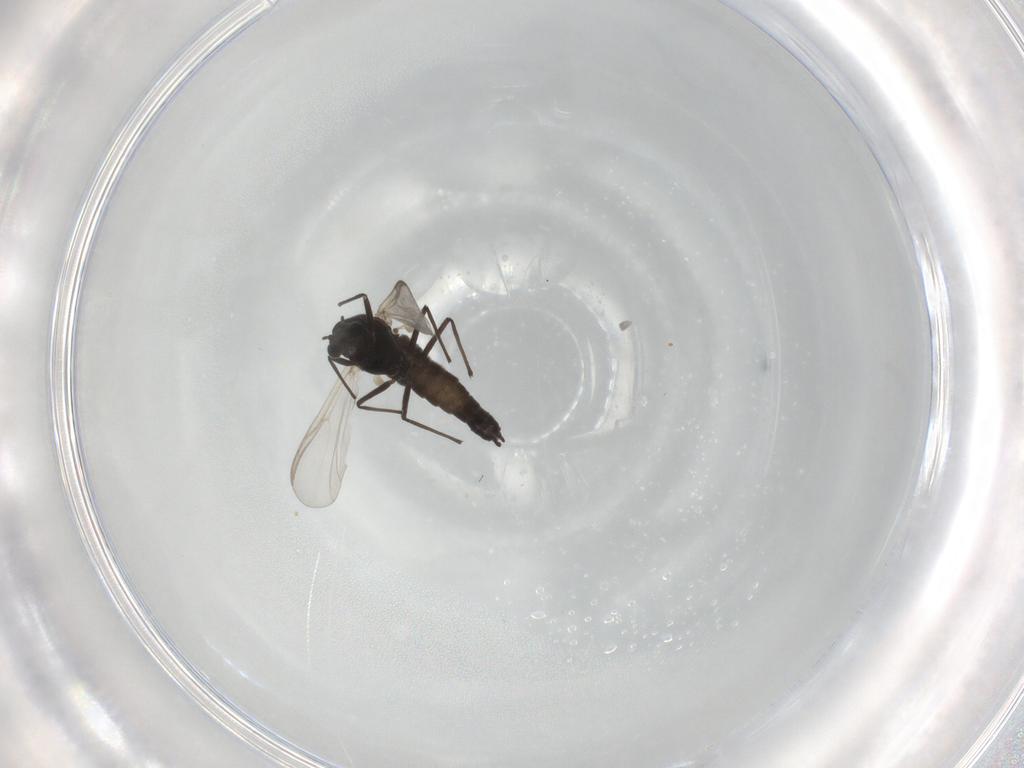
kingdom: Animalia
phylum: Arthropoda
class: Insecta
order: Diptera
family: Chironomidae
